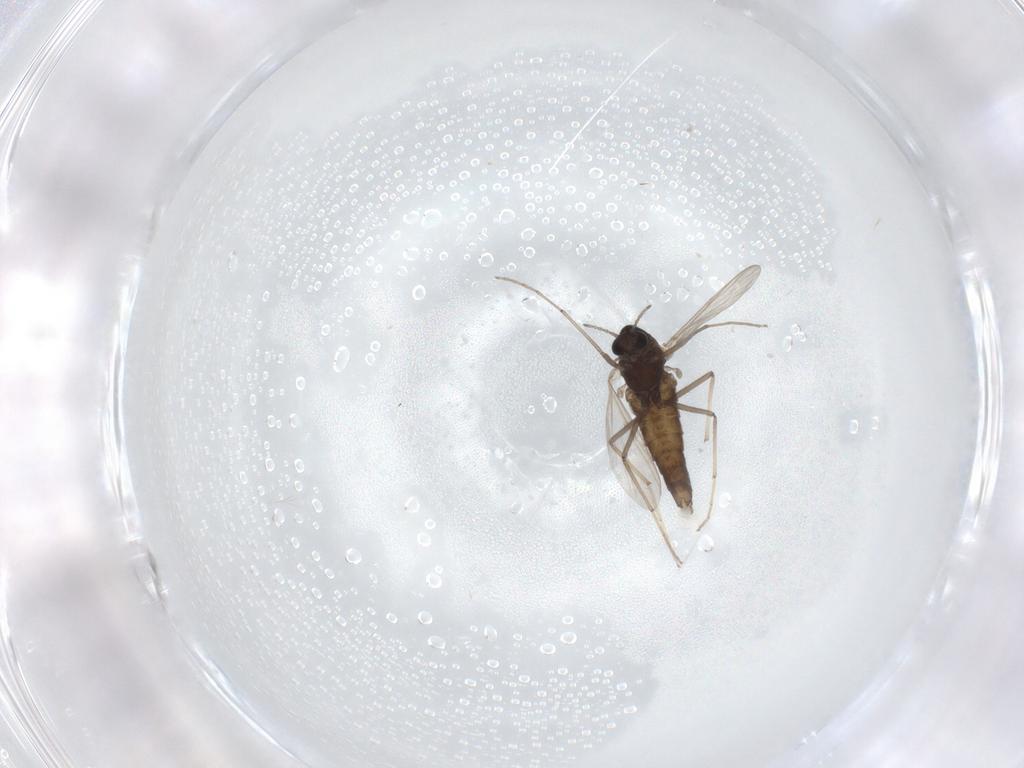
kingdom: Animalia
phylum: Arthropoda
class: Insecta
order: Diptera
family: Chironomidae
